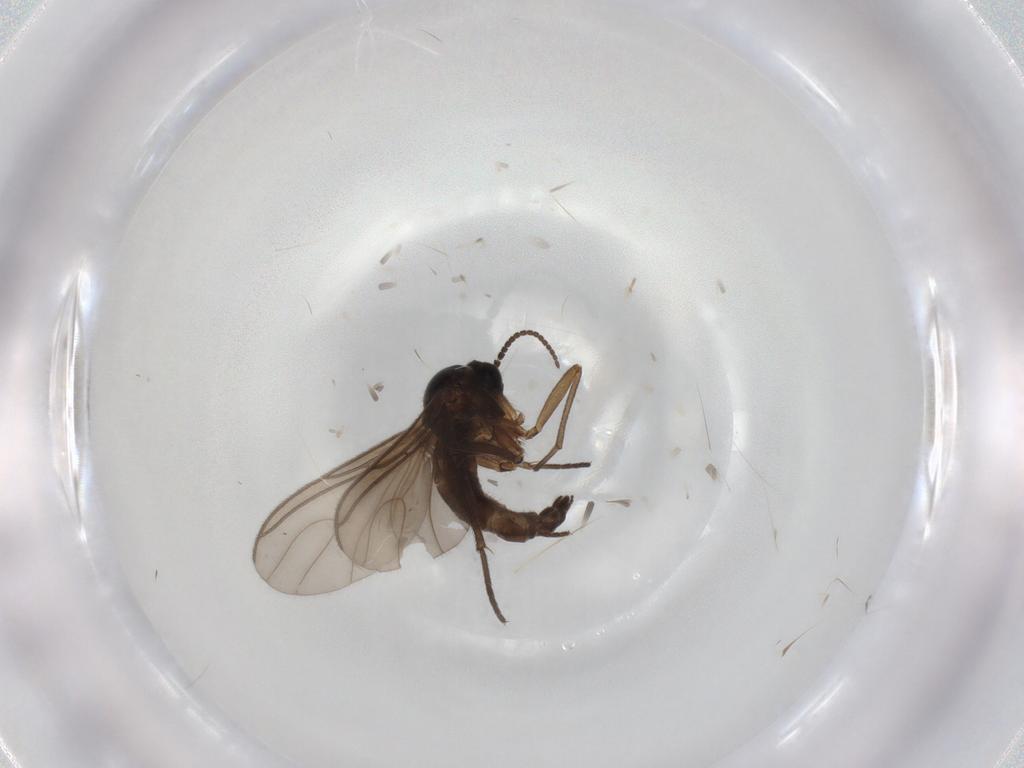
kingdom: Animalia
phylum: Arthropoda
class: Insecta
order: Diptera
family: Sciaridae
